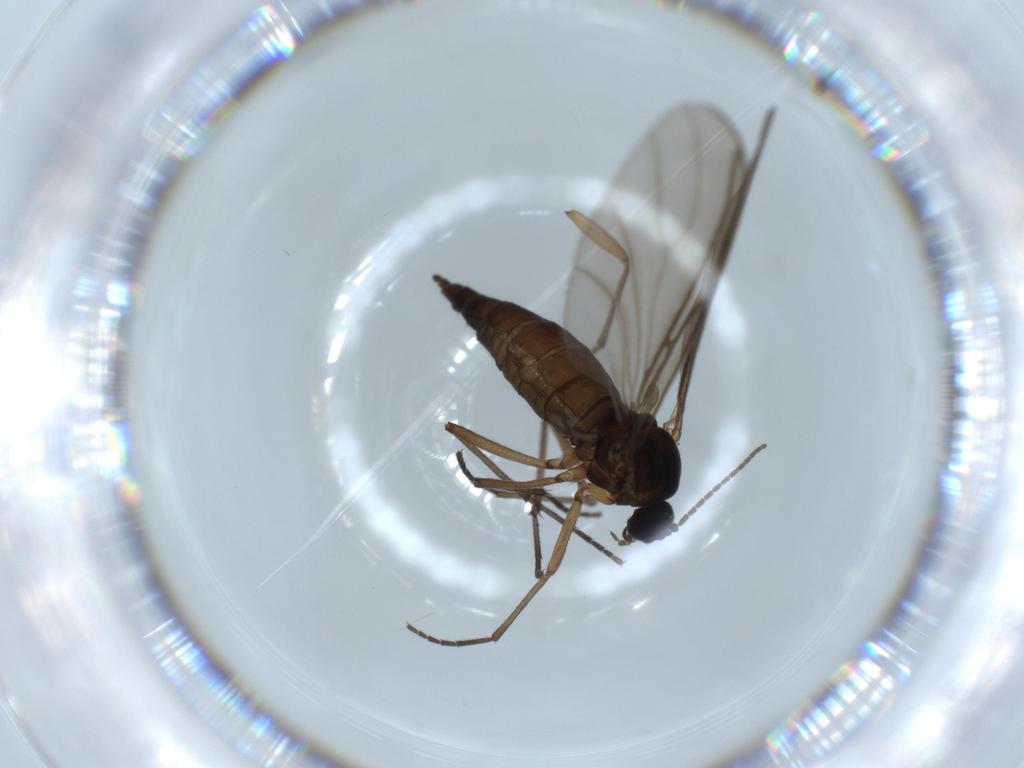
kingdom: Animalia
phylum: Arthropoda
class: Insecta
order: Diptera
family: Sciaridae
